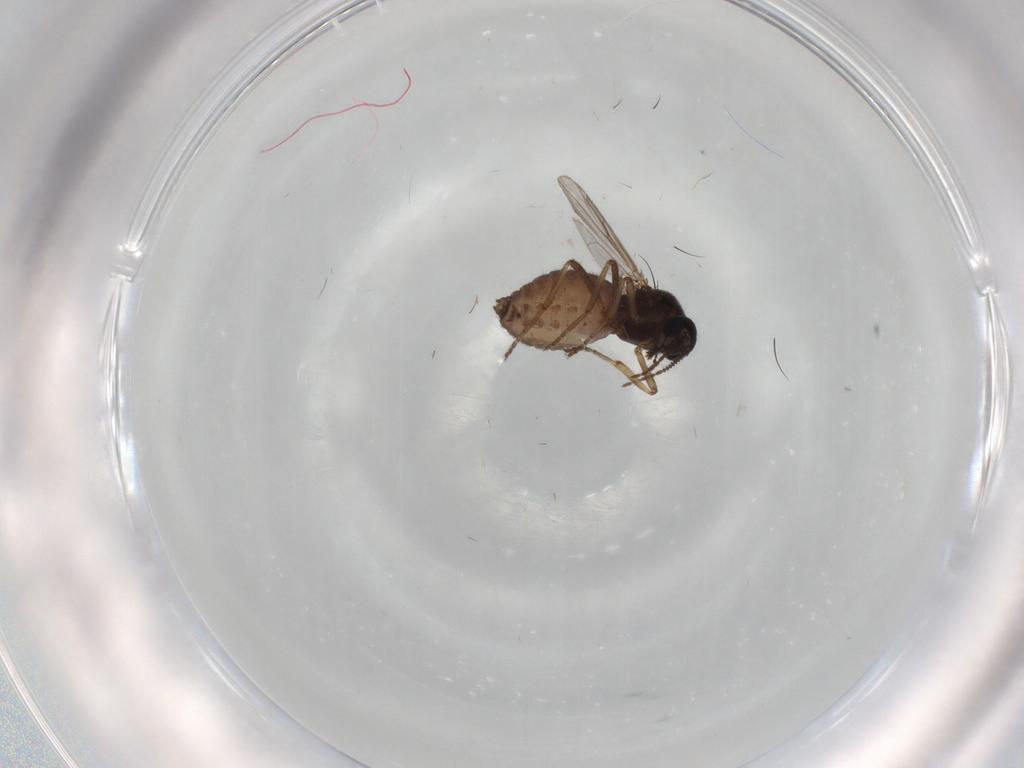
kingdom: Animalia
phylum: Arthropoda
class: Insecta
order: Diptera
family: Ceratopogonidae
